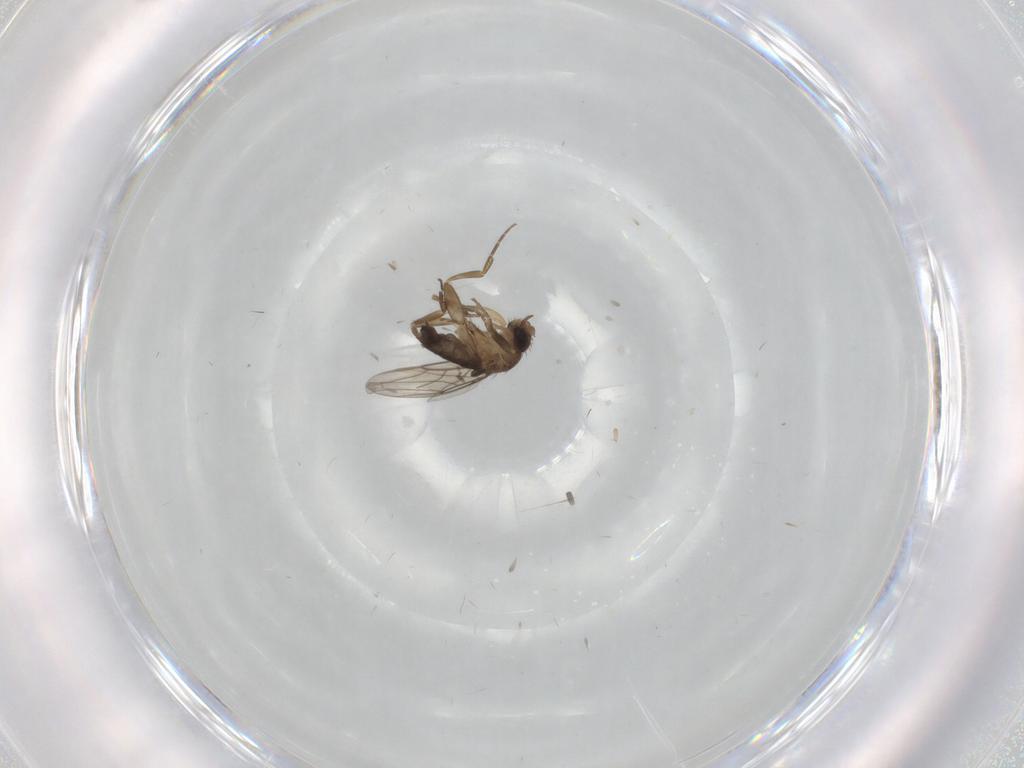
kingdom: Animalia
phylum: Arthropoda
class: Insecta
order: Diptera
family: Phoridae
